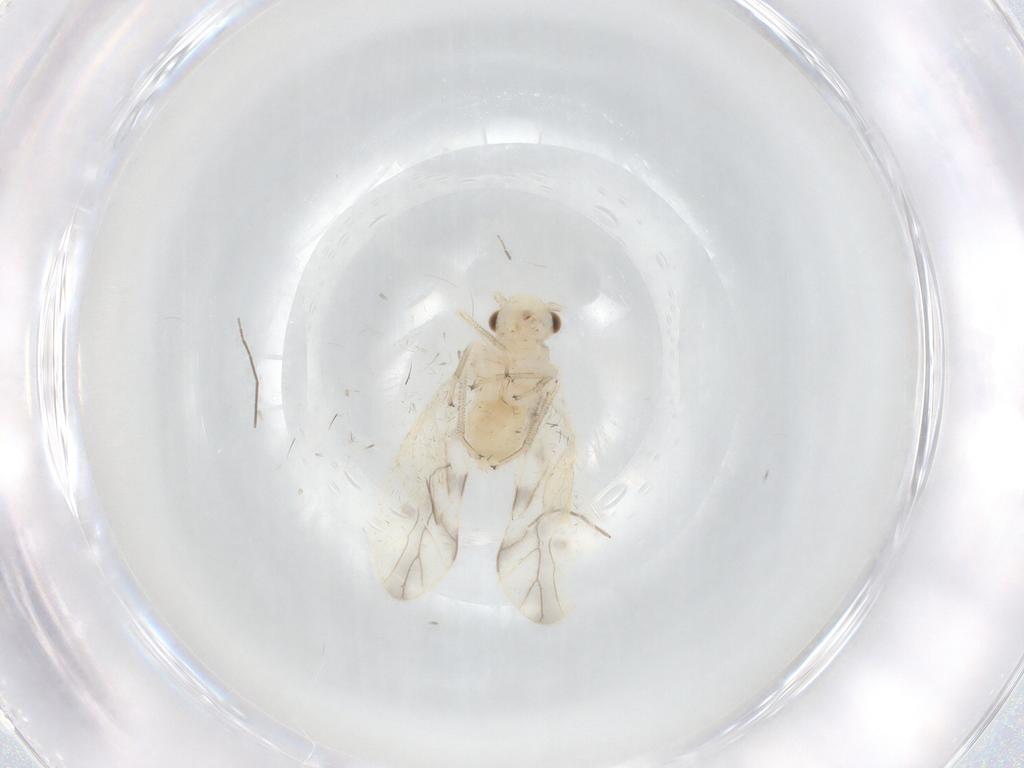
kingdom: Animalia
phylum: Arthropoda
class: Insecta
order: Psocodea
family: Caeciliusidae
